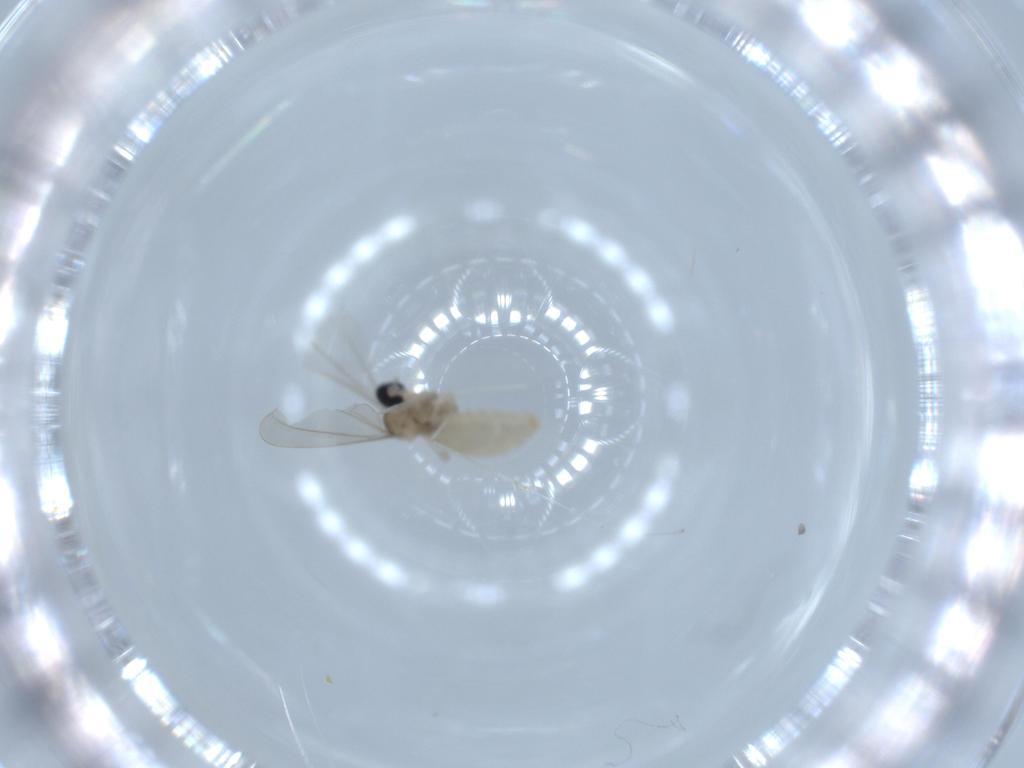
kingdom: Animalia
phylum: Arthropoda
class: Insecta
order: Diptera
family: Cecidomyiidae
